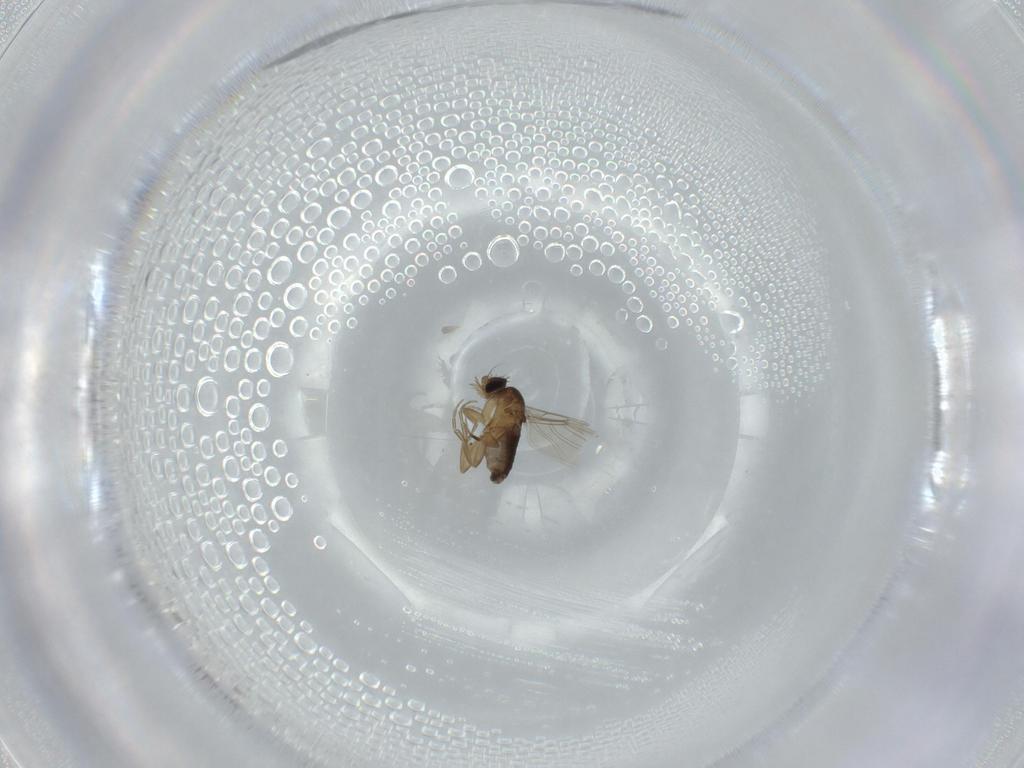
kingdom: Animalia
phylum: Arthropoda
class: Insecta
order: Diptera
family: Phoridae
